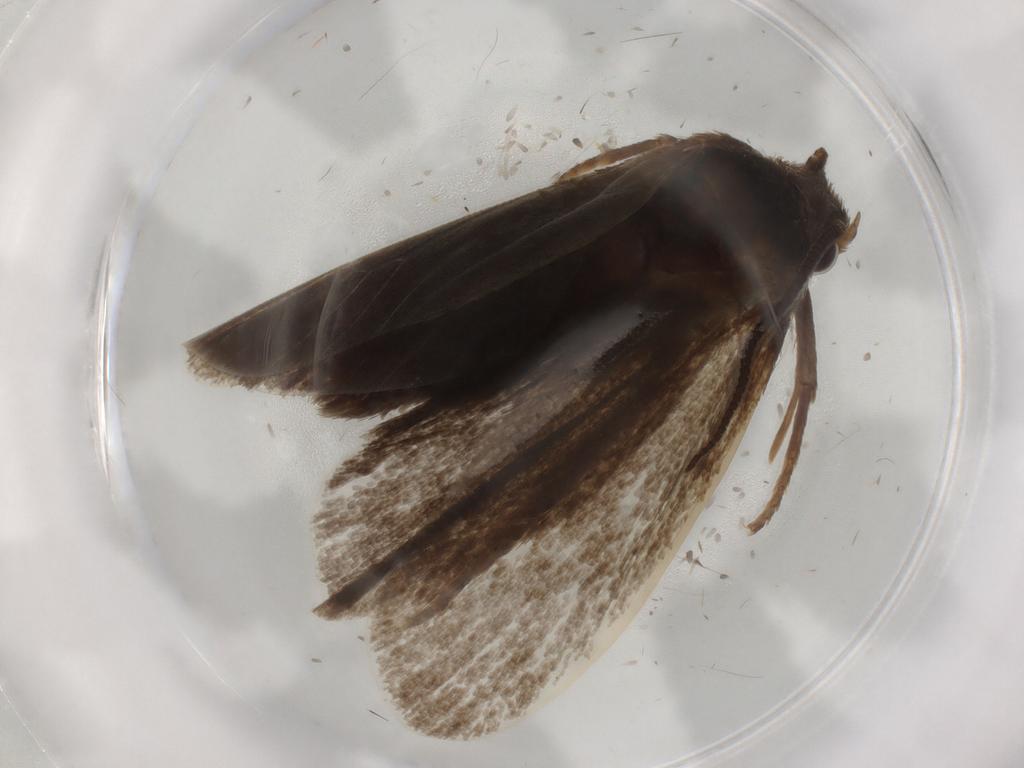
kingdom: Animalia
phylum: Arthropoda
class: Insecta
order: Lepidoptera
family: Tineidae
